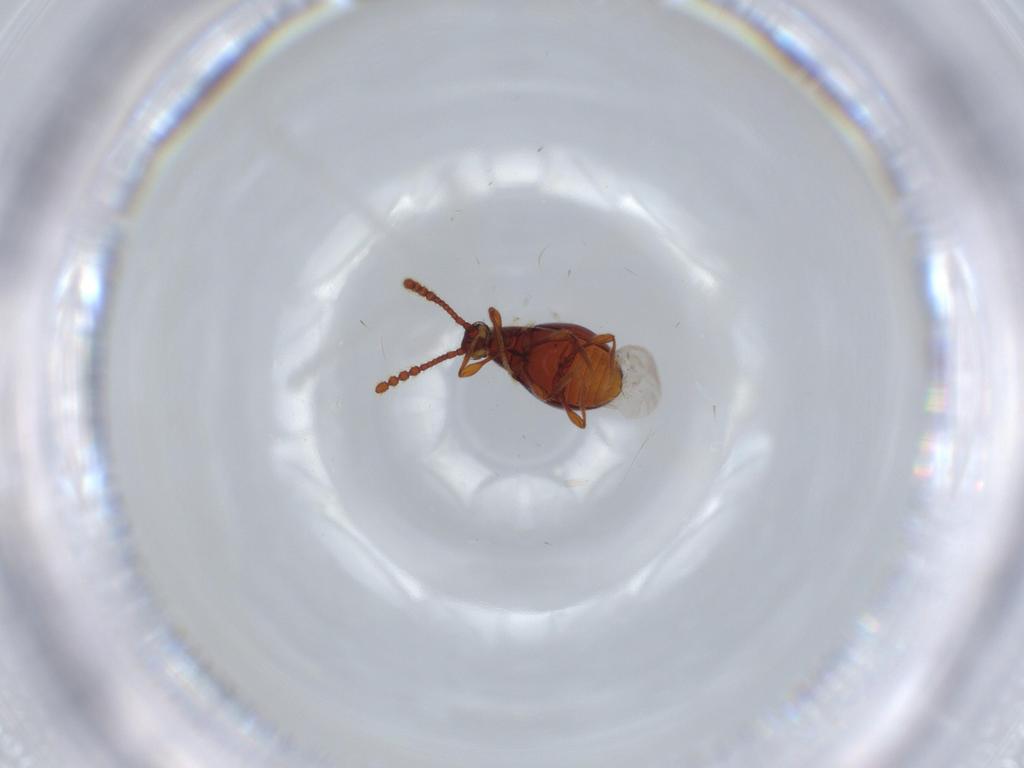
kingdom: Animalia
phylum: Arthropoda
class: Insecta
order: Coleoptera
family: Staphylinidae
